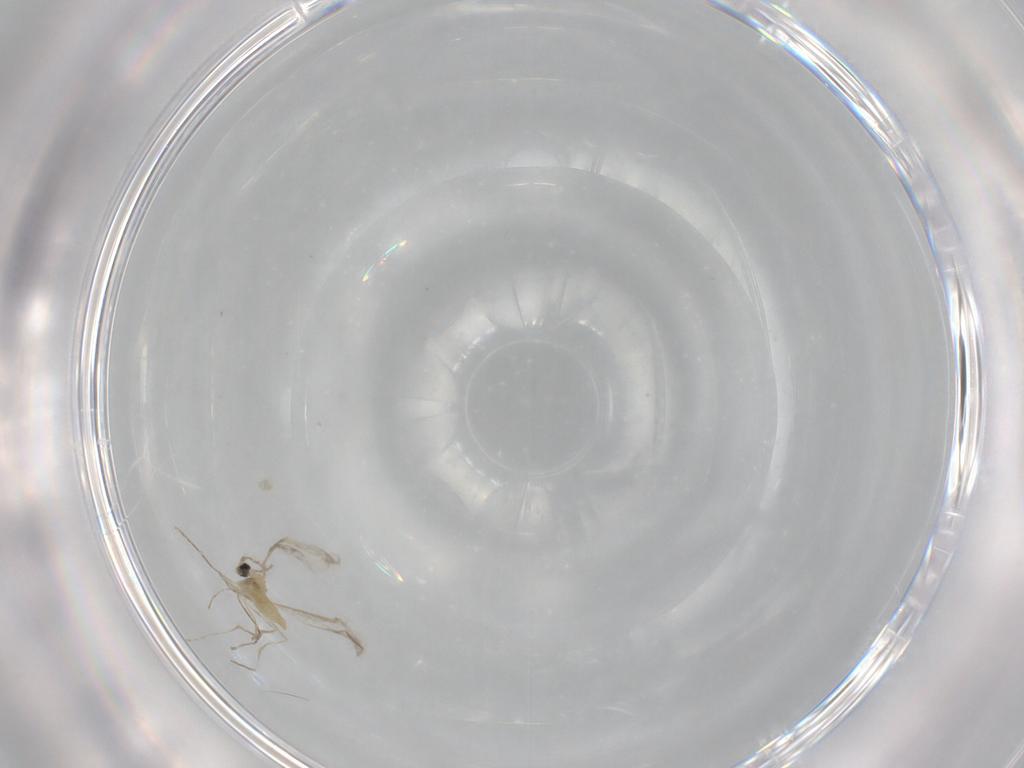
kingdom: Animalia
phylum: Arthropoda
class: Insecta
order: Diptera
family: Cecidomyiidae
